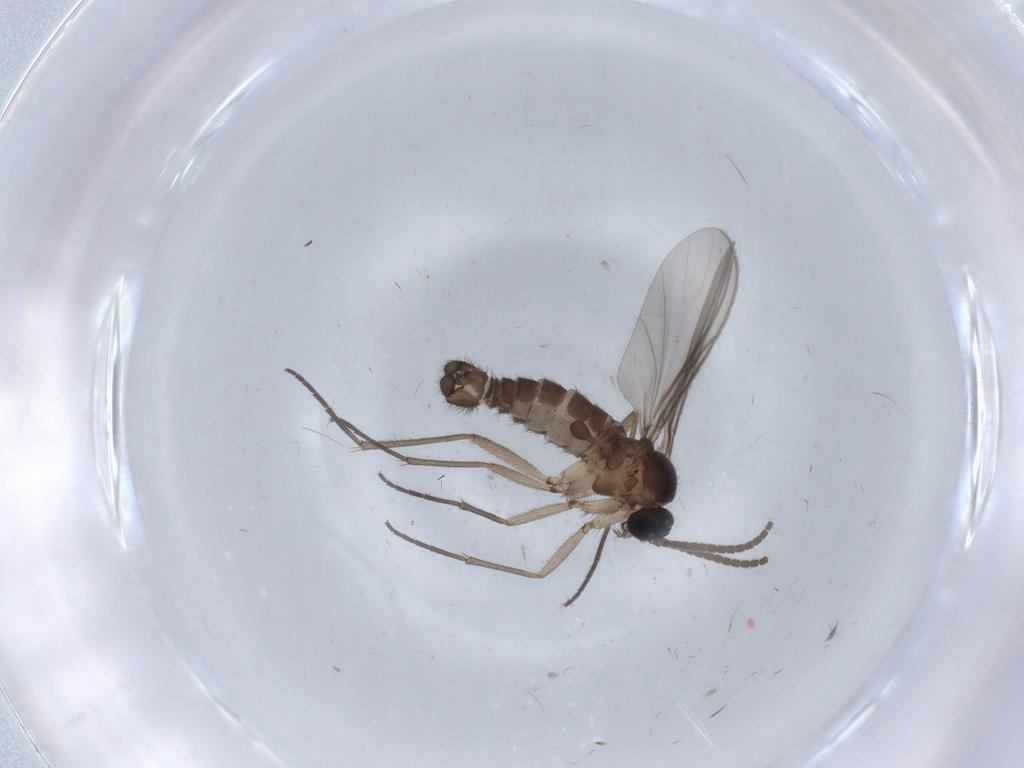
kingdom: Animalia
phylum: Arthropoda
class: Insecta
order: Diptera
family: Sciaridae
